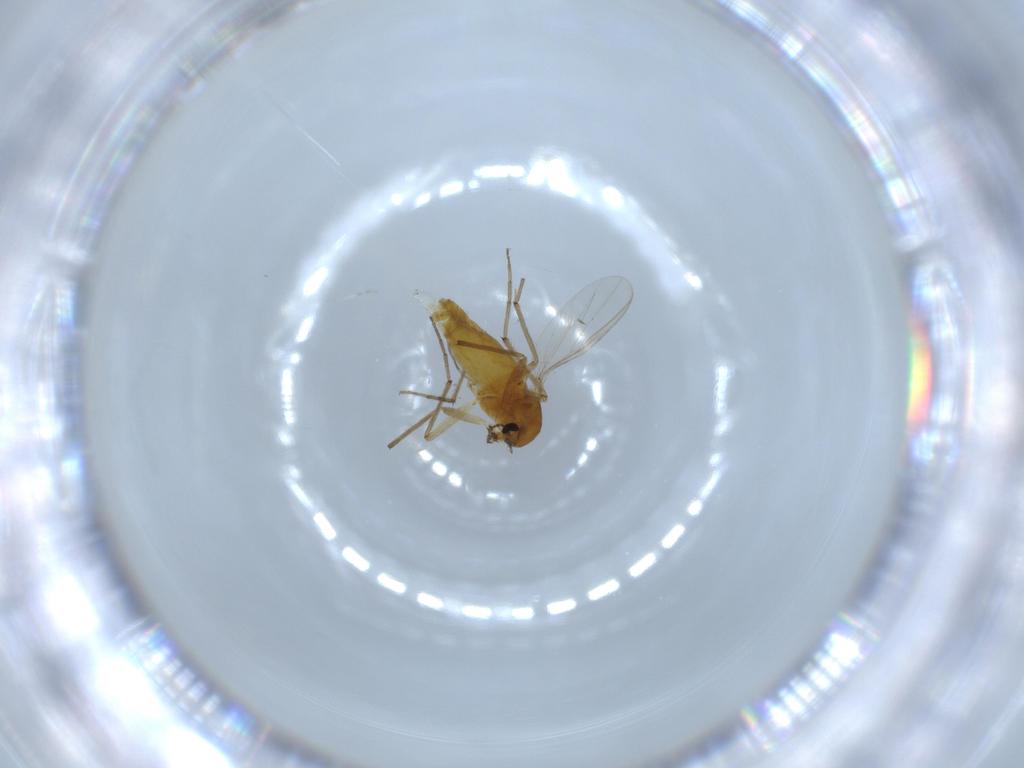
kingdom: Animalia
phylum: Arthropoda
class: Insecta
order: Diptera
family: Chironomidae
